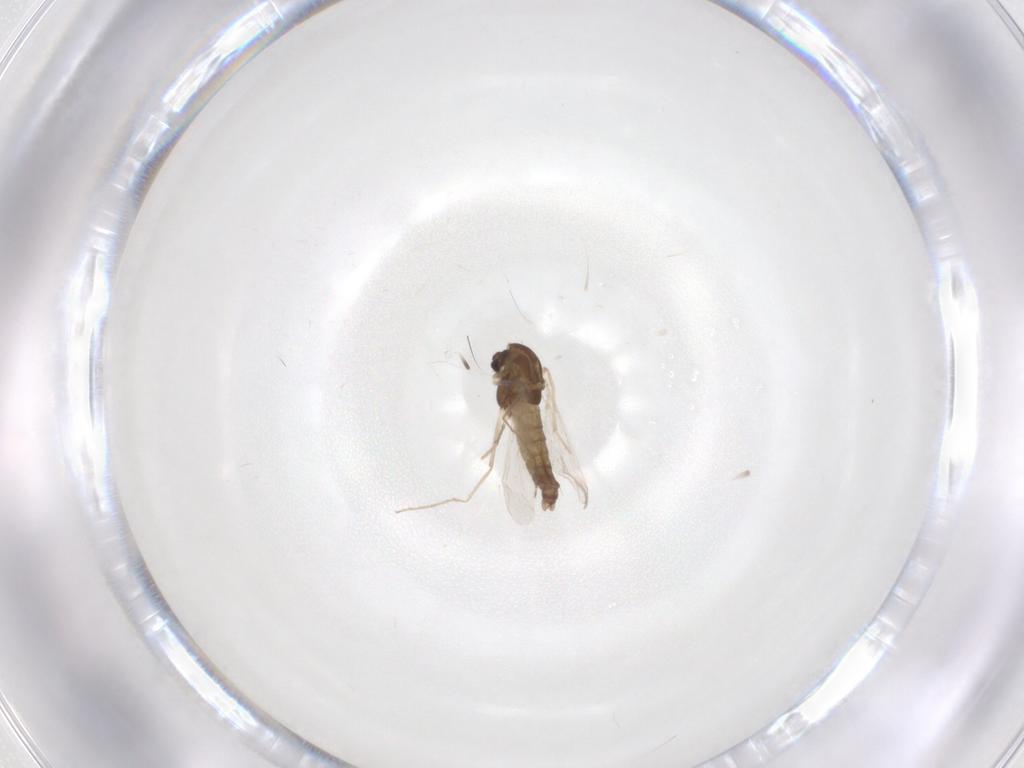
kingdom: Animalia
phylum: Arthropoda
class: Insecta
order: Diptera
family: Chironomidae
